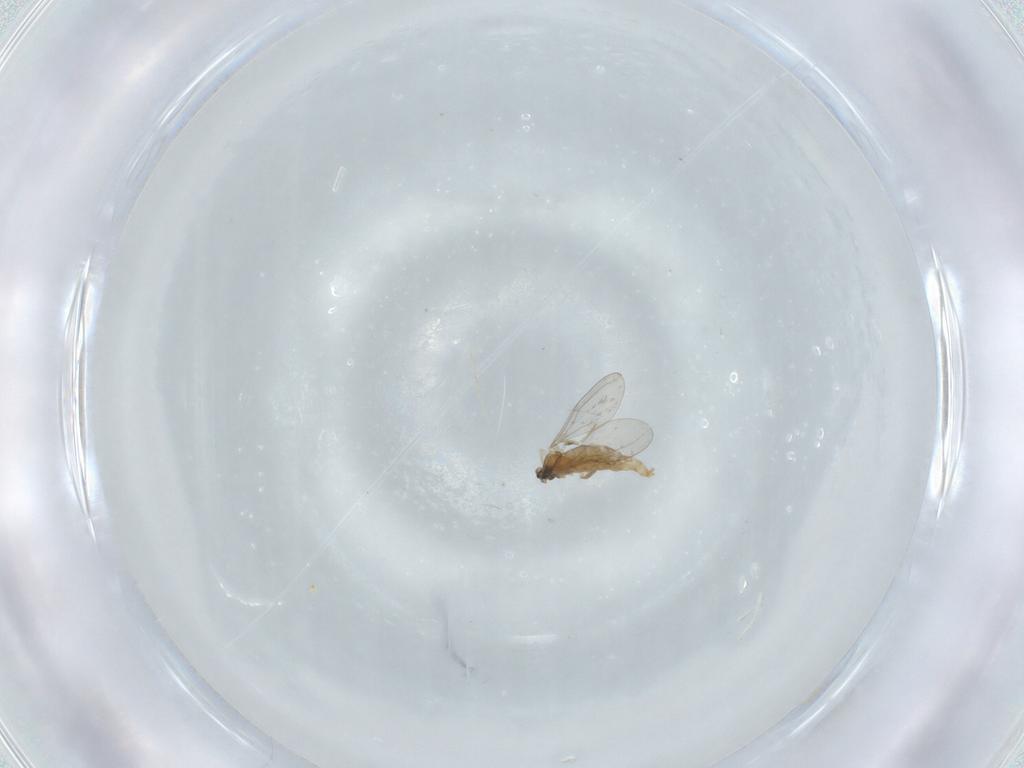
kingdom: Animalia
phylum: Arthropoda
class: Insecta
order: Diptera
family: Cecidomyiidae
